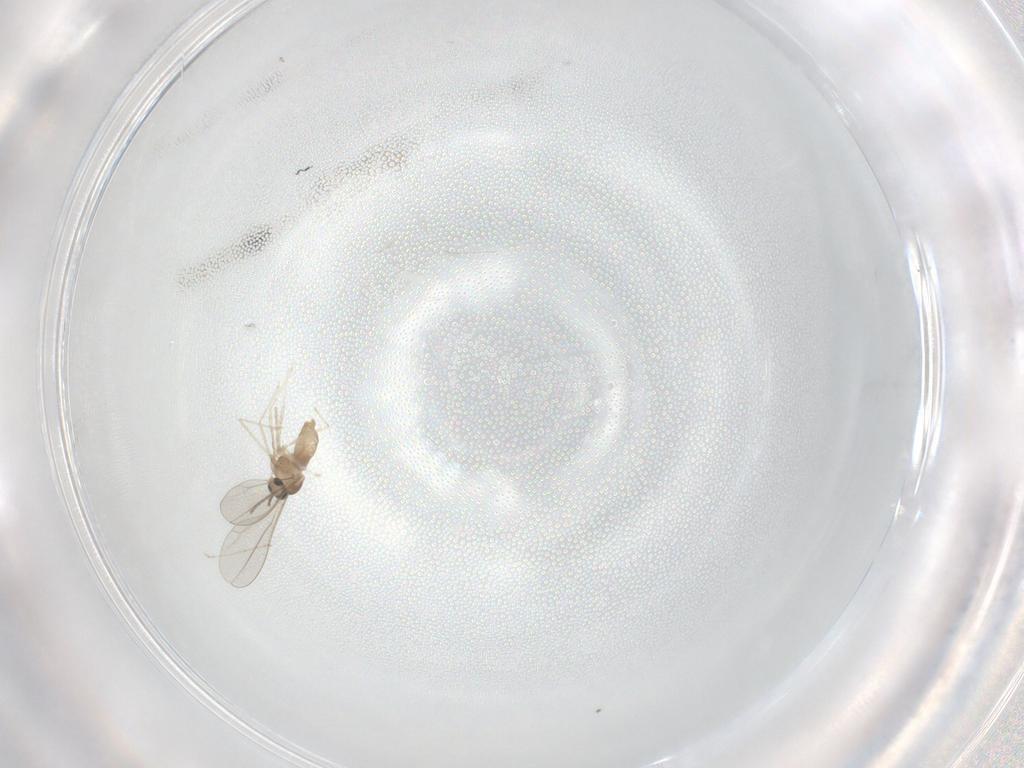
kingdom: Animalia
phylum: Arthropoda
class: Insecta
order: Diptera
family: Cecidomyiidae
